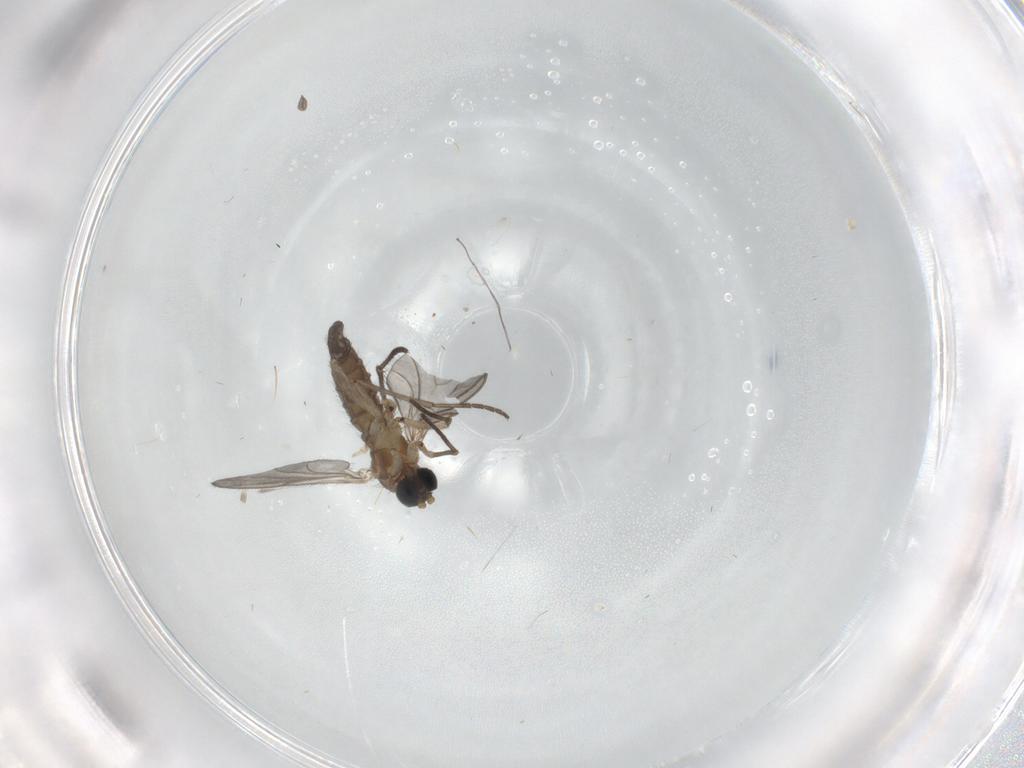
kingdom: Animalia
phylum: Arthropoda
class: Insecta
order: Diptera
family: Sciaridae
